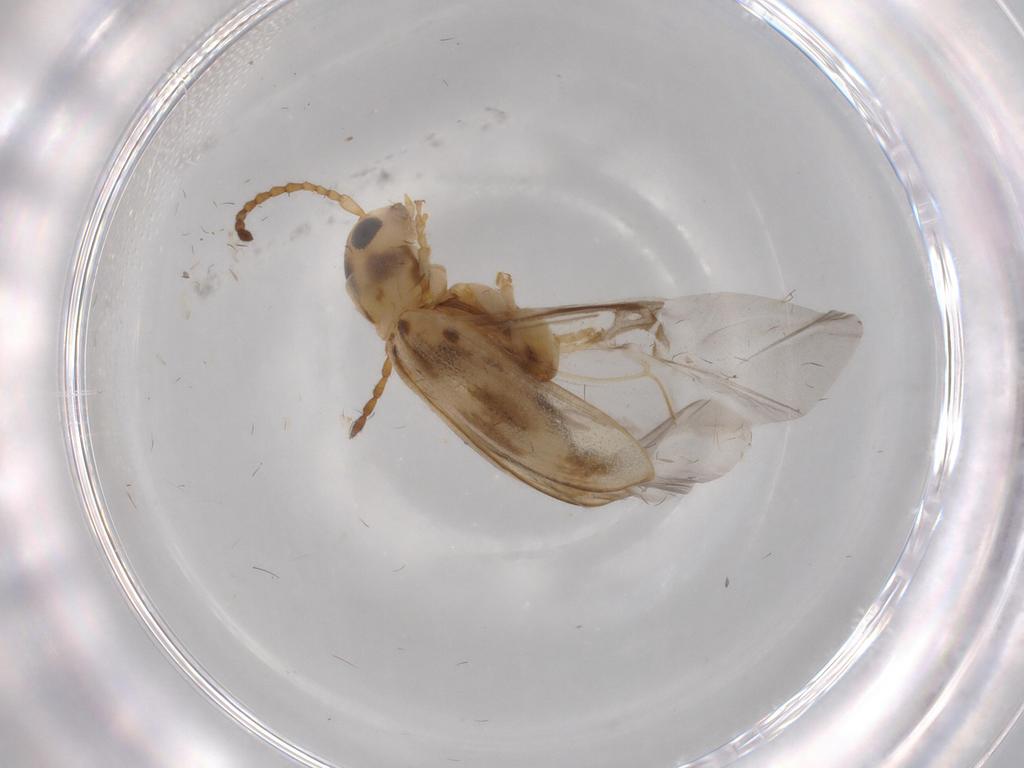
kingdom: Animalia
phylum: Arthropoda
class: Insecta
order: Coleoptera
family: Chrysomelidae
